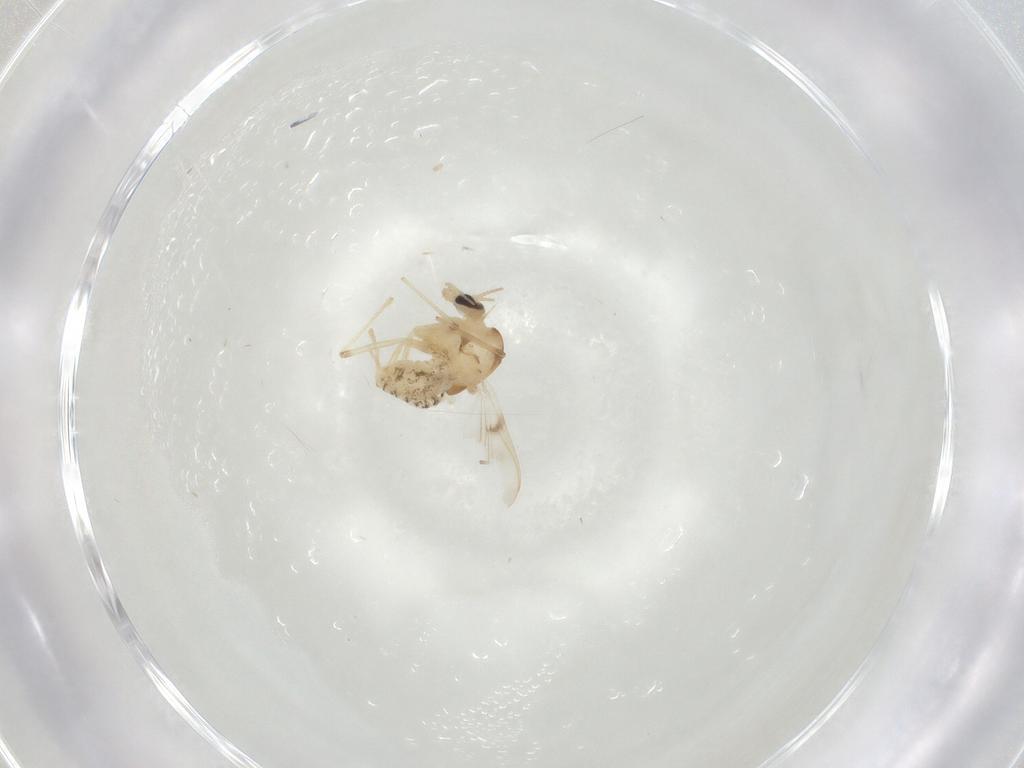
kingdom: Animalia
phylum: Arthropoda
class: Insecta
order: Diptera
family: Chironomidae
